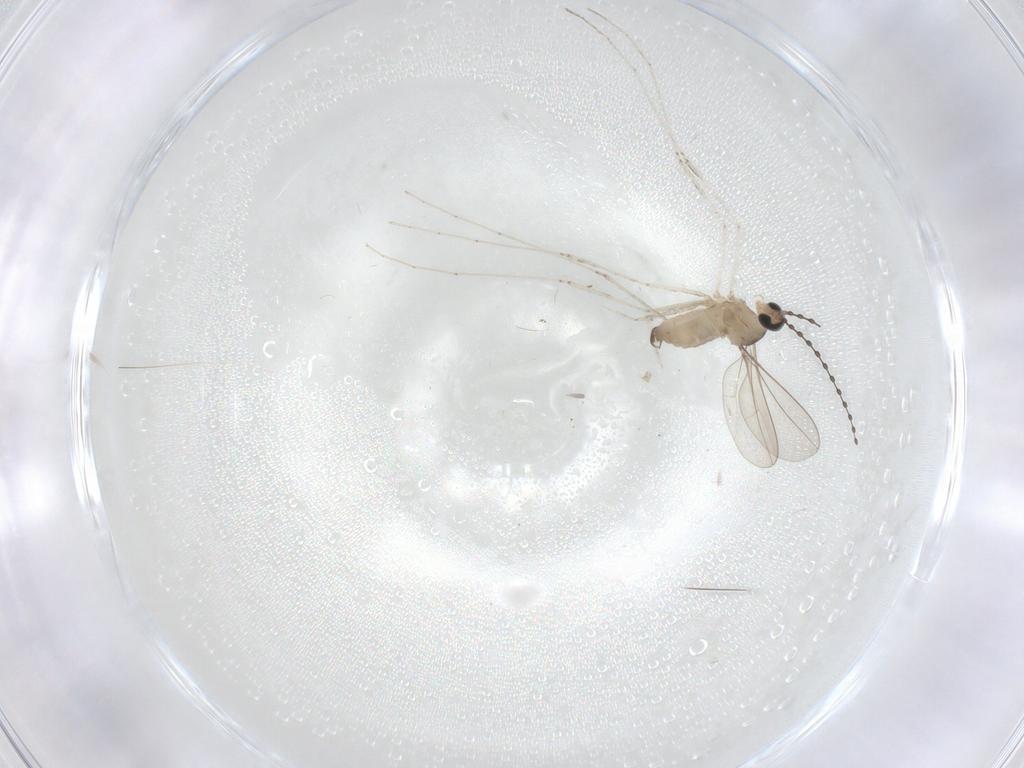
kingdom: Animalia
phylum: Arthropoda
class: Insecta
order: Diptera
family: Cecidomyiidae
